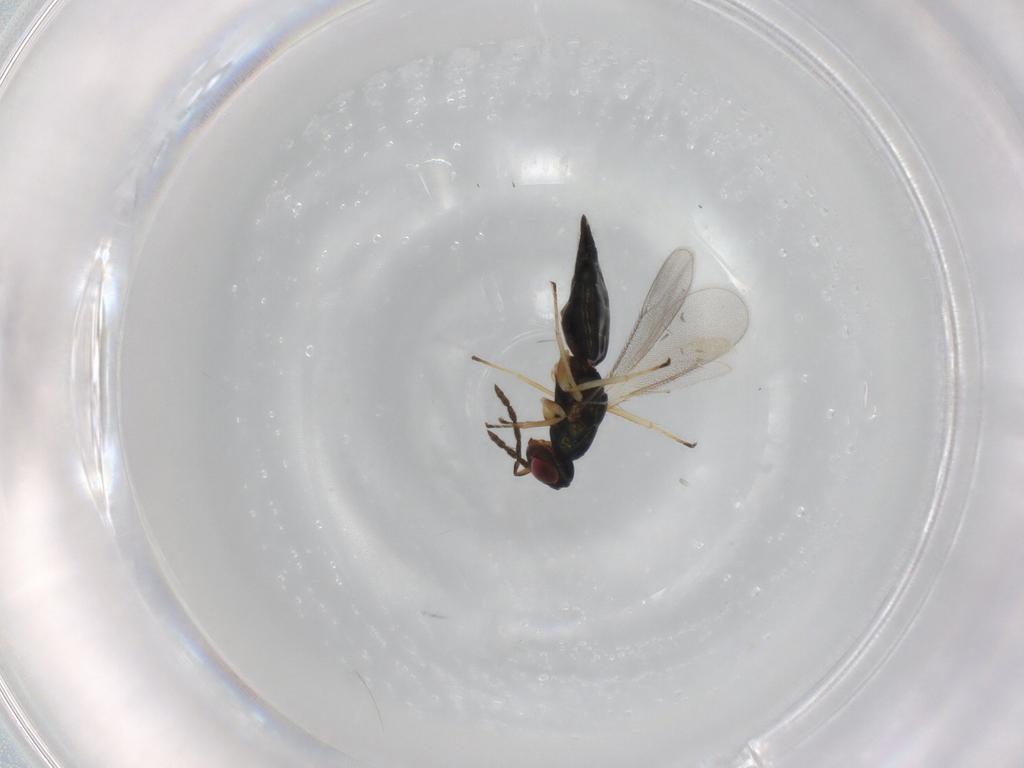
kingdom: Animalia
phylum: Arthropoda
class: Insecta
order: Hymenoptera
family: Eulophidae
